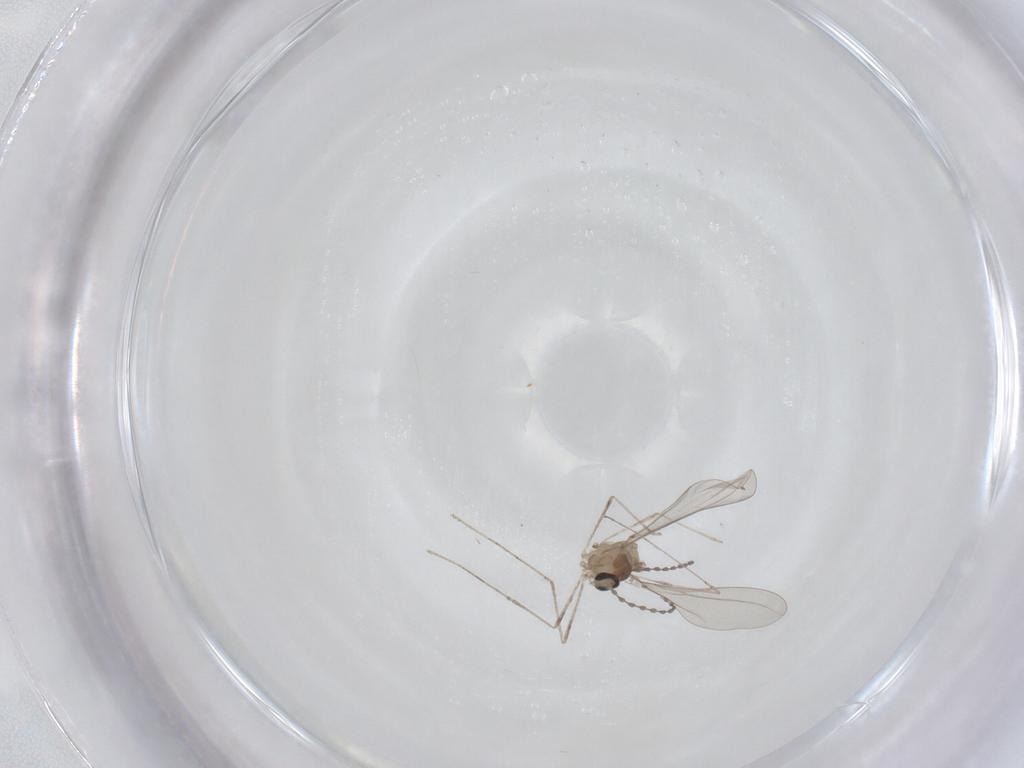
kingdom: Animalia
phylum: Arthropoda
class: Insecta
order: Diptera
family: Cecidomyiidae
